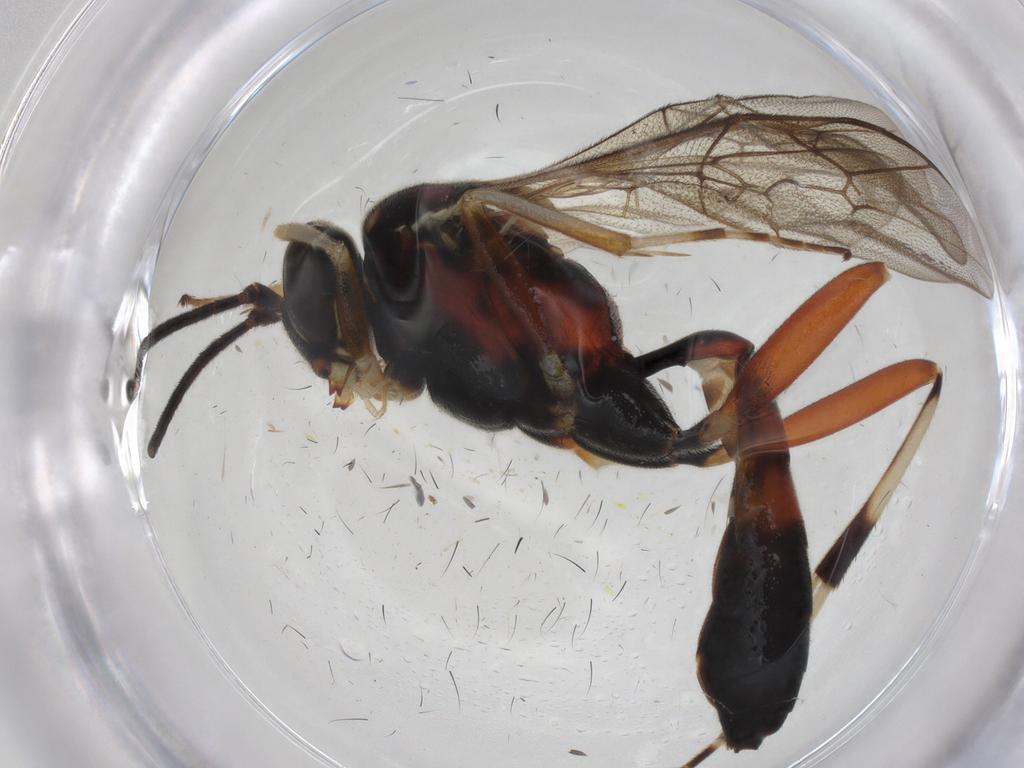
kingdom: Animalia
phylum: Arthropoda
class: Insecta
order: Hymenoptera
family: Ichneumonidae
